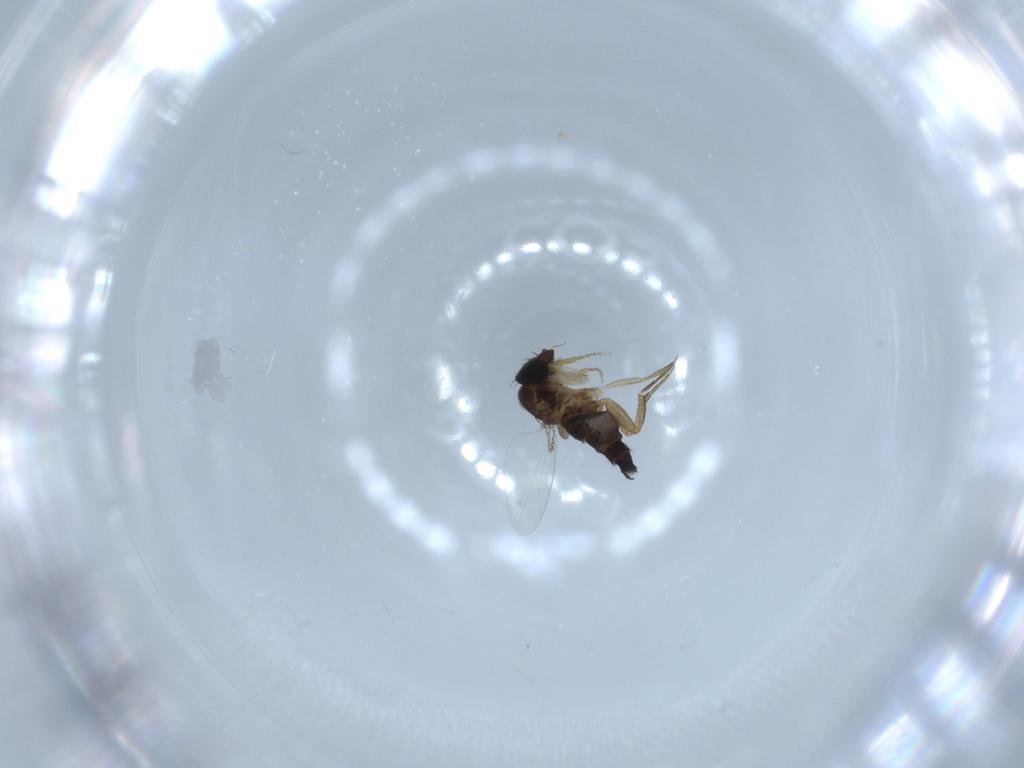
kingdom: Animalia
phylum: Arthropoda
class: Insecta
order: Diptera
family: Phoridae
